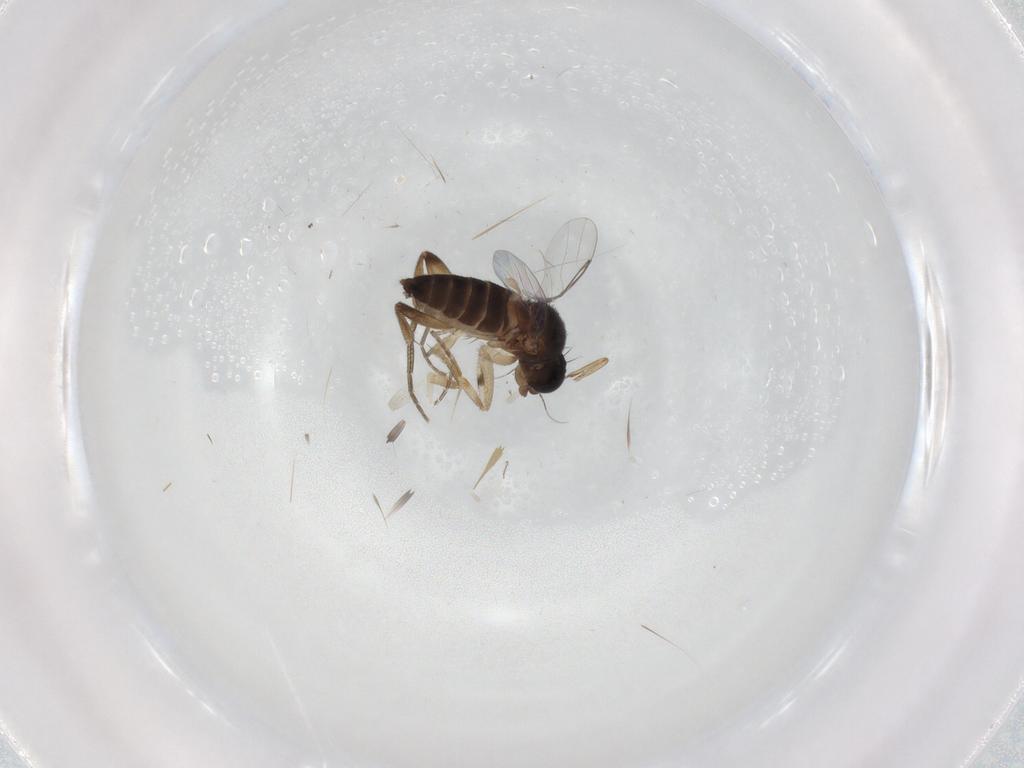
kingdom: Animalia
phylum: Arthropoda
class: Insecta
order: Diptera
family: Phoridae
